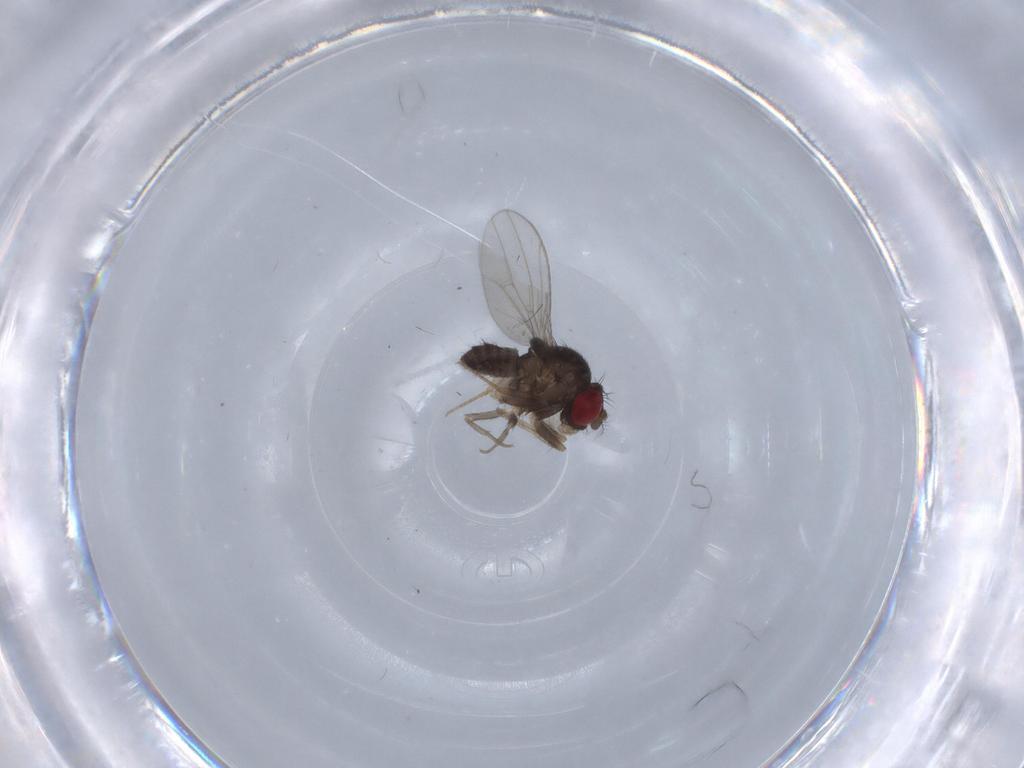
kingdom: Animalia
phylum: Arthropoda
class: Insecta
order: Diptera
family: Drosophilidae
